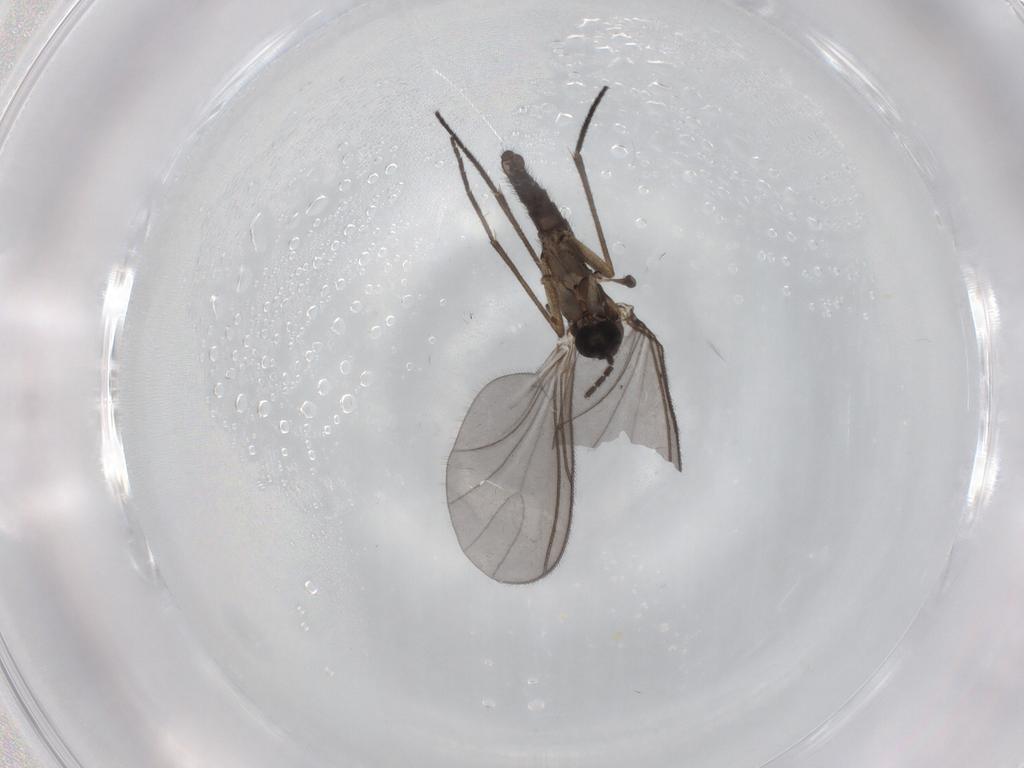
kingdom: Animalia
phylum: Arthropoda
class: Insecta
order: Diptera
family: Sciaridae
